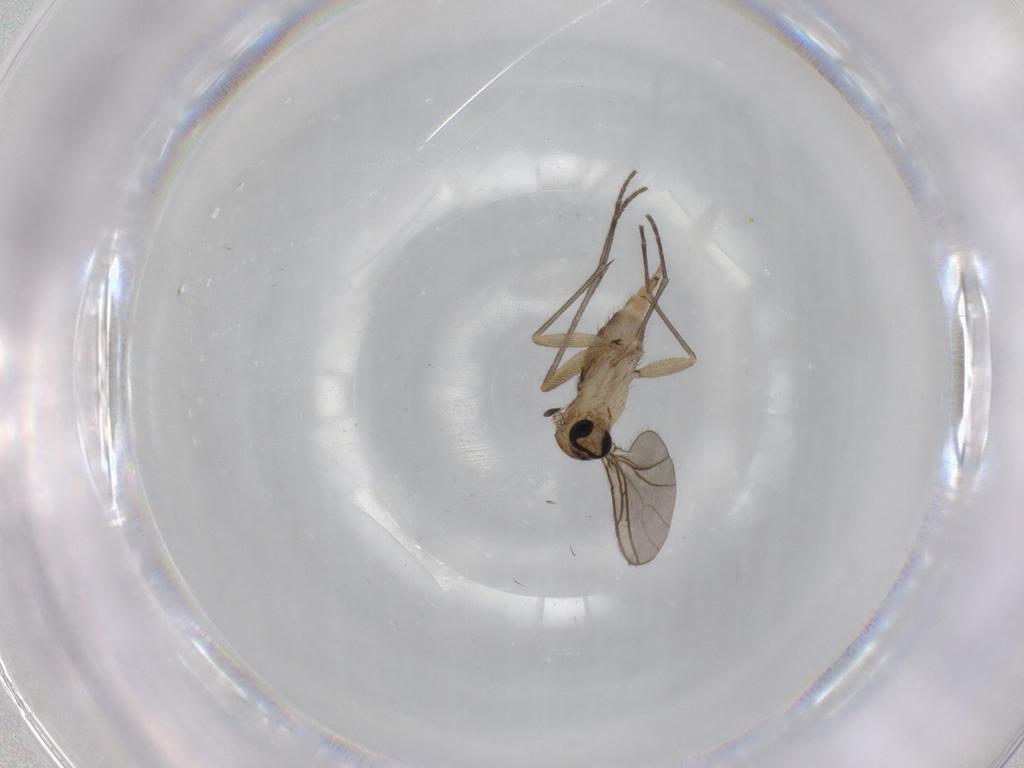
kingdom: Animalia
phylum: Arthropoda
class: Insecta
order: Diptera
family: Sciaridae
